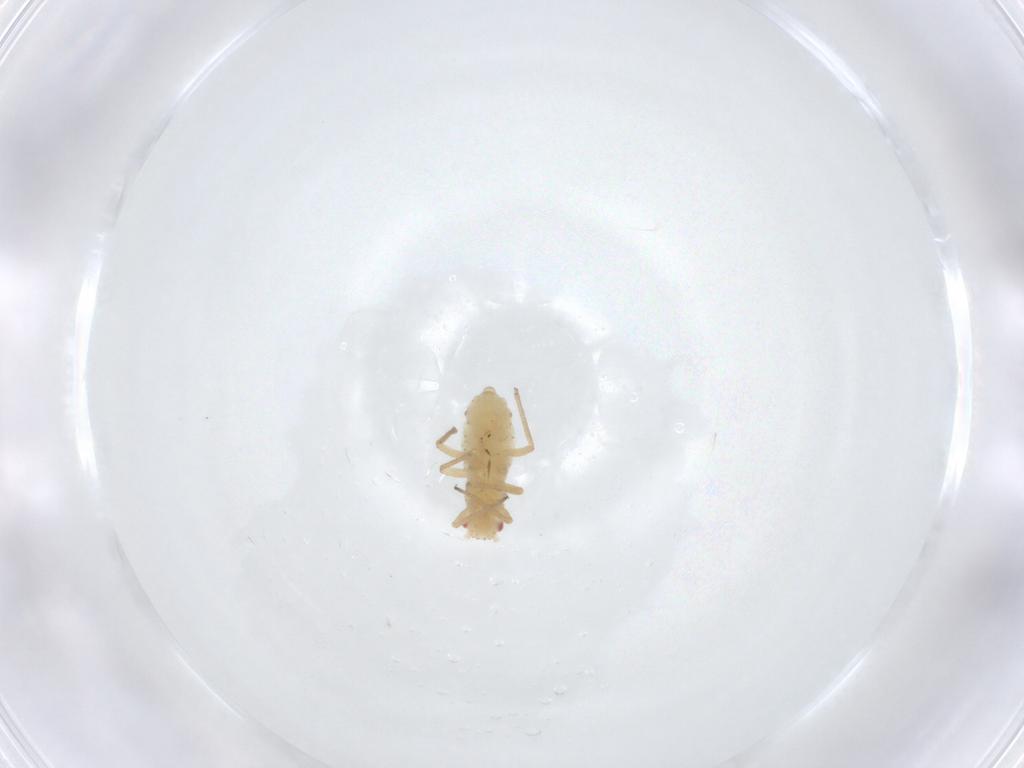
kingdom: Animalia
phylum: Arthropoda
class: Insecta
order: Hemiptera
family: Aphididae
